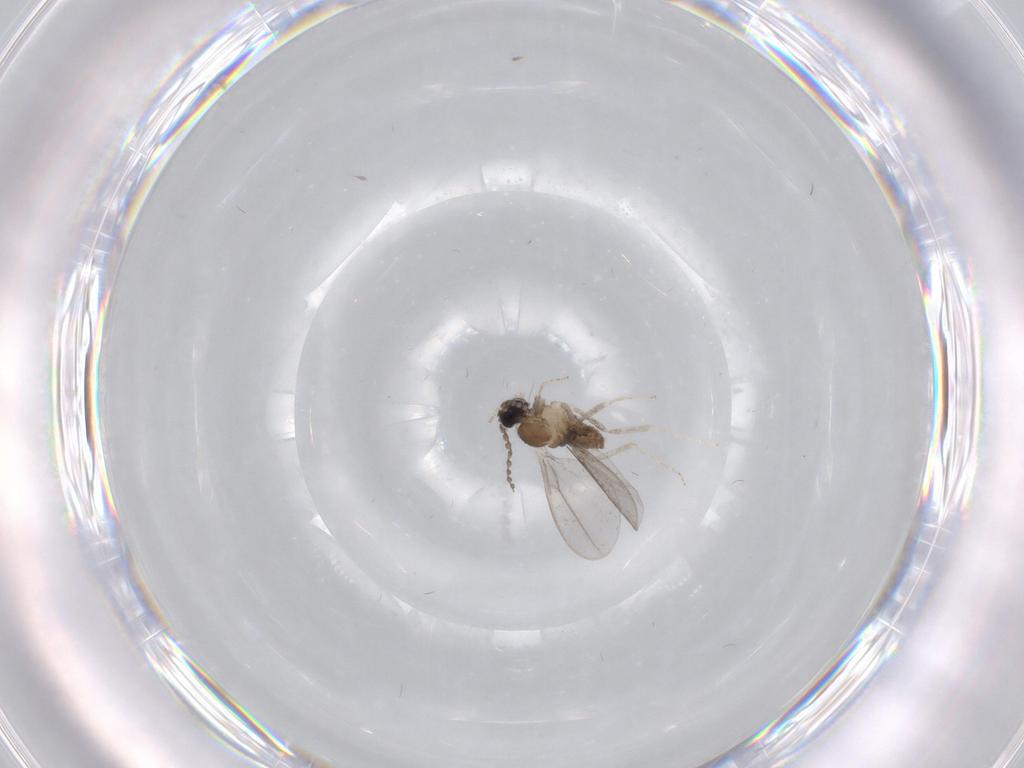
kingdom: Animalia
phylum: Arthropoda
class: Insecta
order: Diptera
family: Cecidomyiidae
